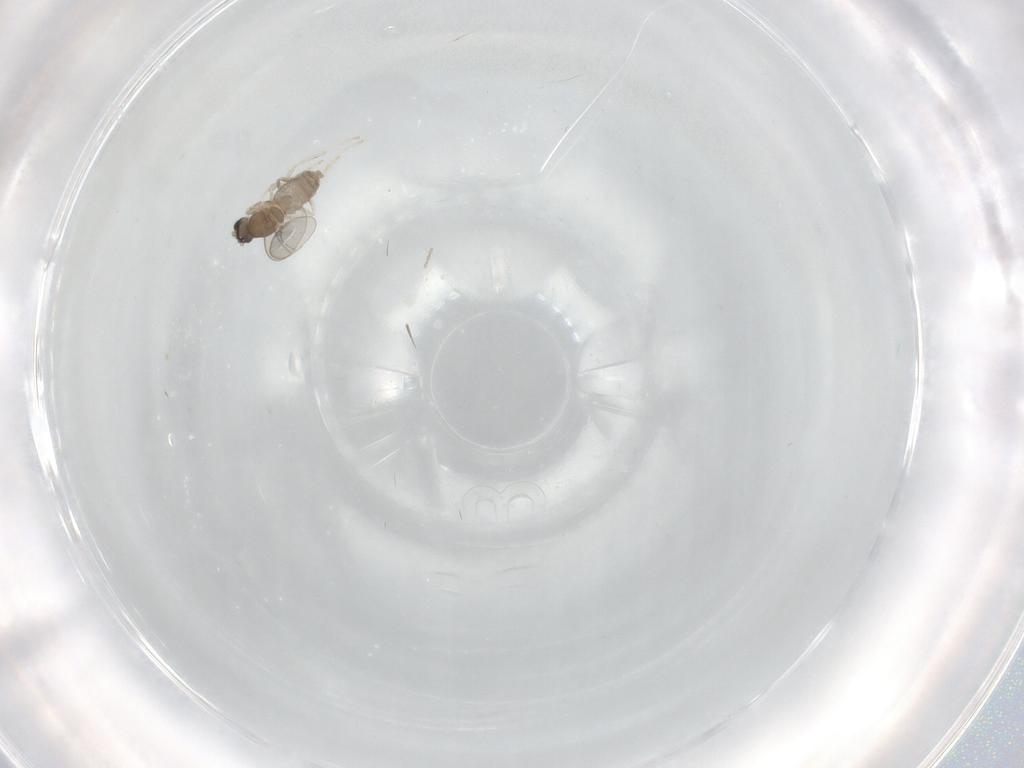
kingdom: Animalia
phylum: Arthropoda
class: Insecta
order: Diptera
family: Cecidomyiidae
